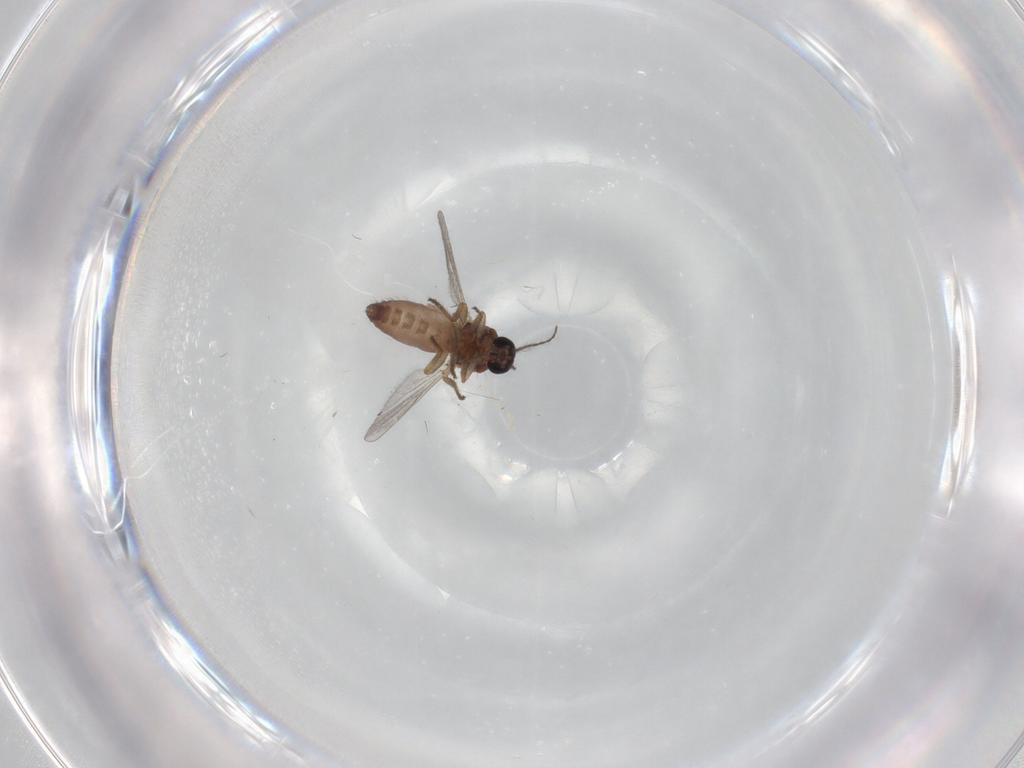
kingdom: Animalia
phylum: Arthropoda
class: Insecta
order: Diptera
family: Ceratopogonidae
